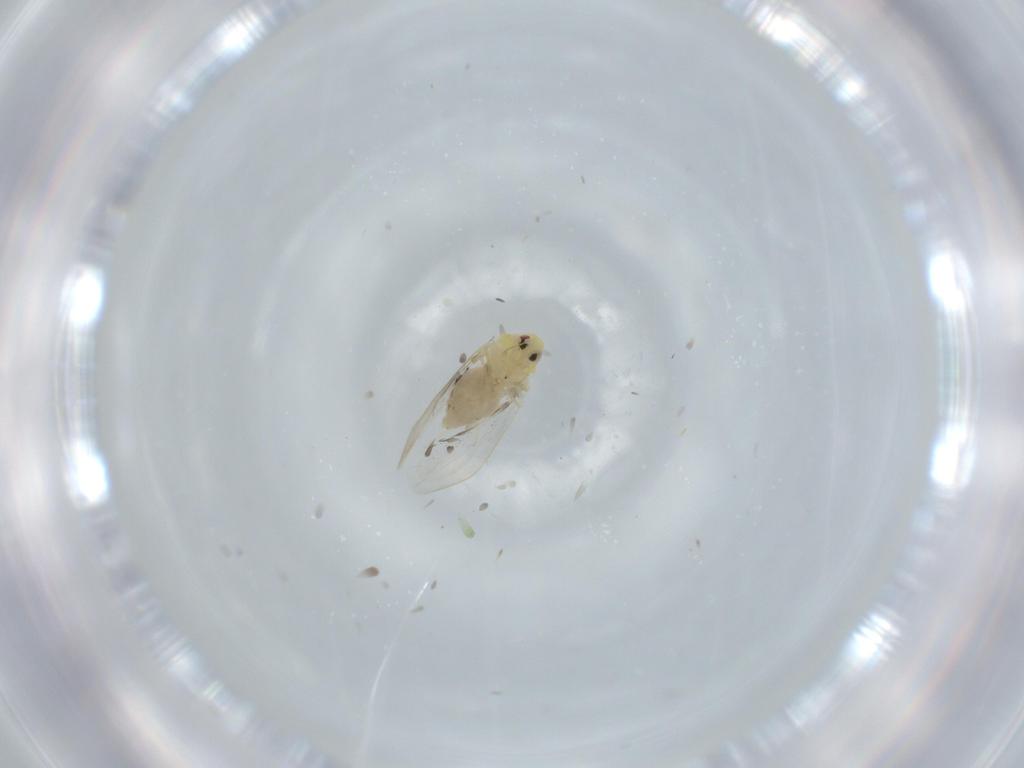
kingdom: Animalia
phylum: Arthropoda
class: Insecta
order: Hemiptera
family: Aleyrodidae
